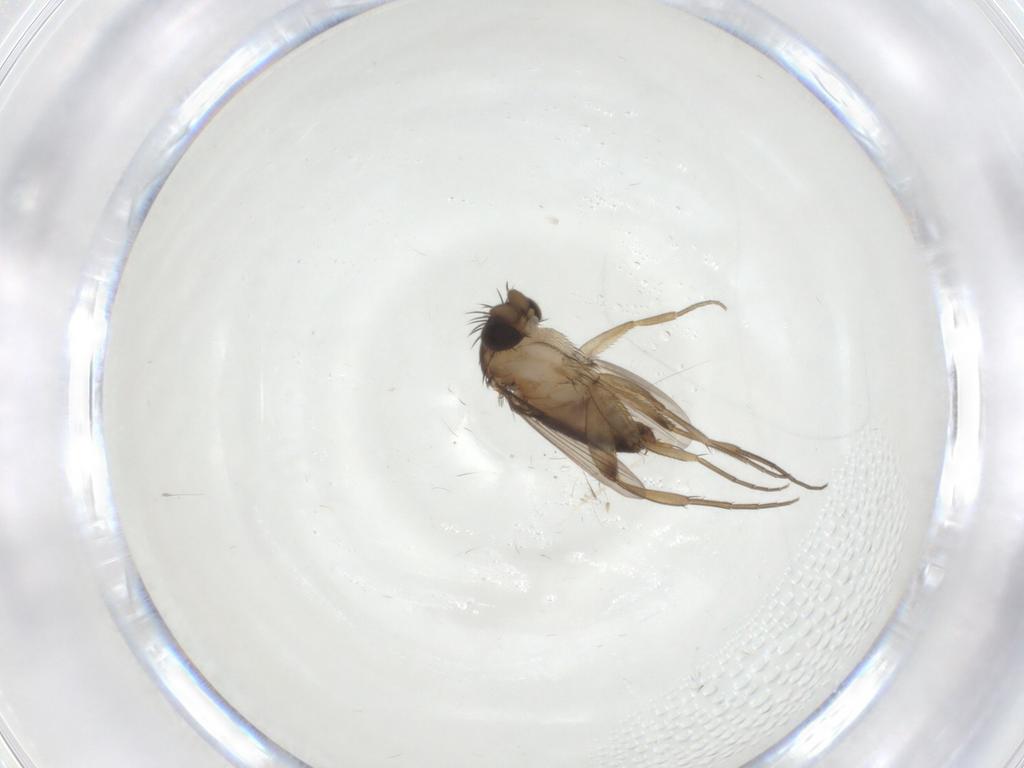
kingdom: Animalia
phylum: Arthropoda
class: Insecta
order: Diptera
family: Phoridae
